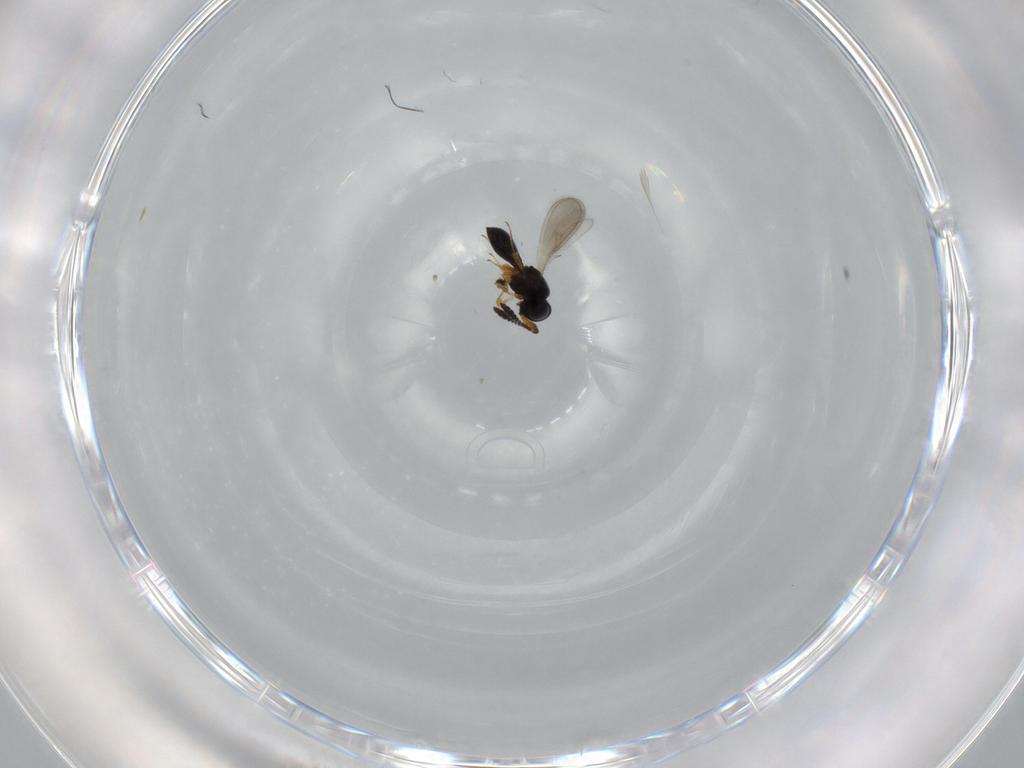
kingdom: Animalia
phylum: Arthropoda
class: Insecta
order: Hymenoptera
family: Scelionidae
